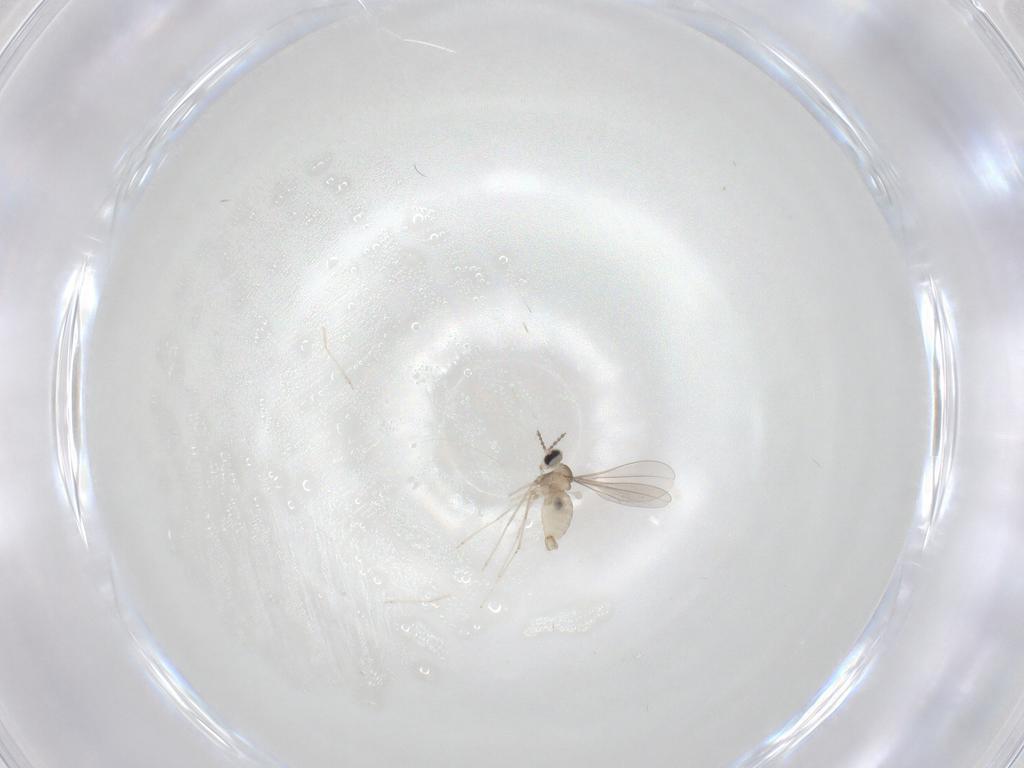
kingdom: Animalia
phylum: Arthropoda
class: Insecta
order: Diptera
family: Cecidomyiidae
